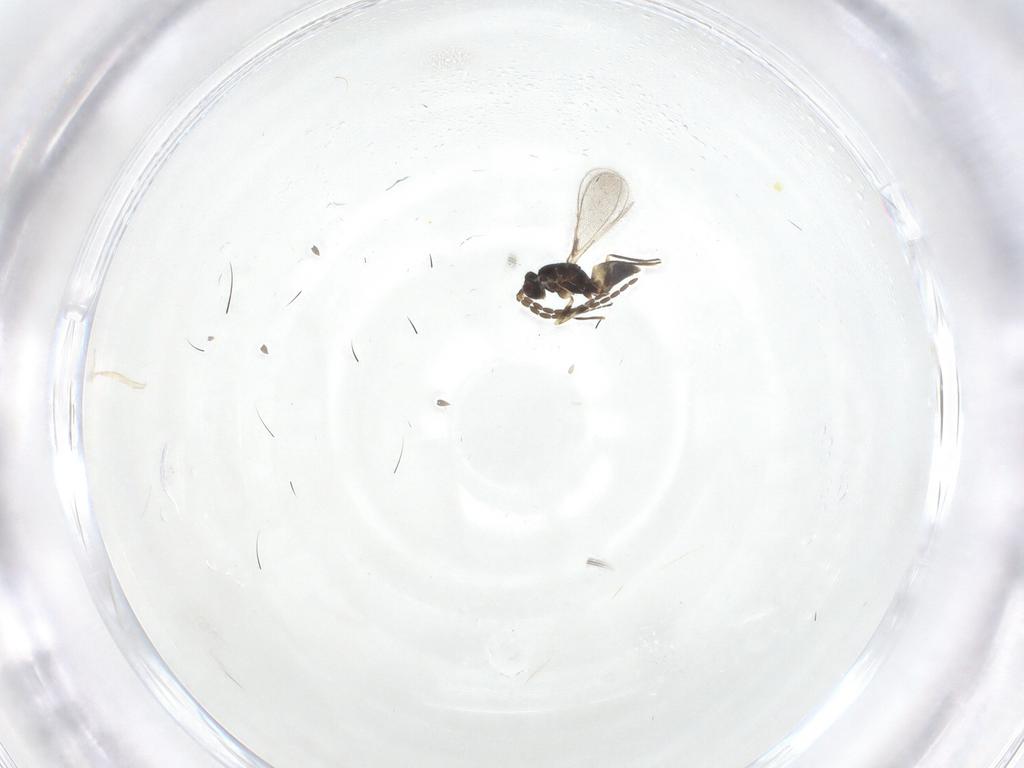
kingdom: Animalia
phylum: Arthropoda
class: Insecta
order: Hymenoptera
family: Mymaridae
